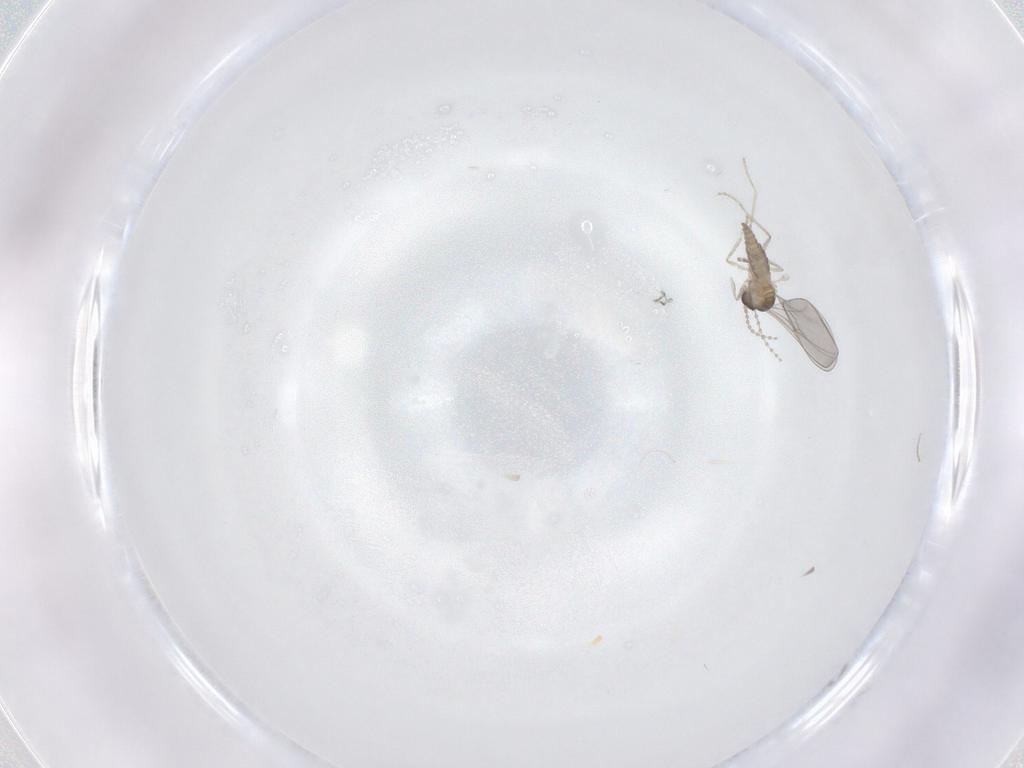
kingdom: Animalia
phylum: Arthropoda
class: Insecta
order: Diptera
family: Cecidomyiidae
